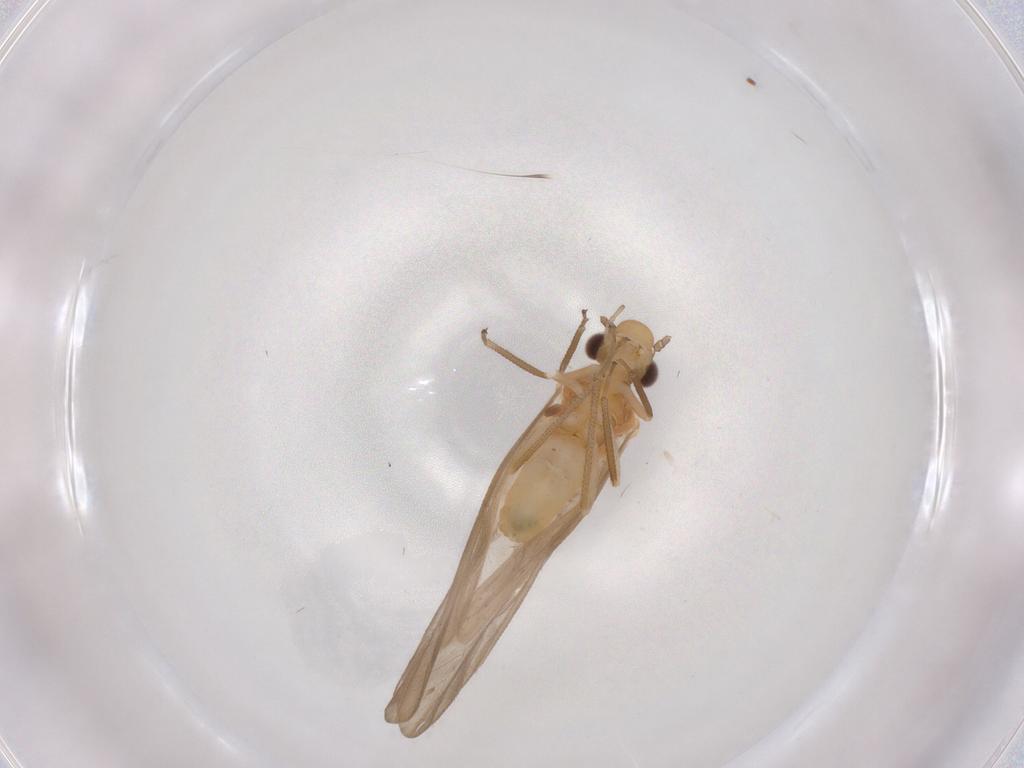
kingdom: Animalia
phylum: Arthropoda
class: Insecta
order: Psocodea
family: Caeciliusidae
